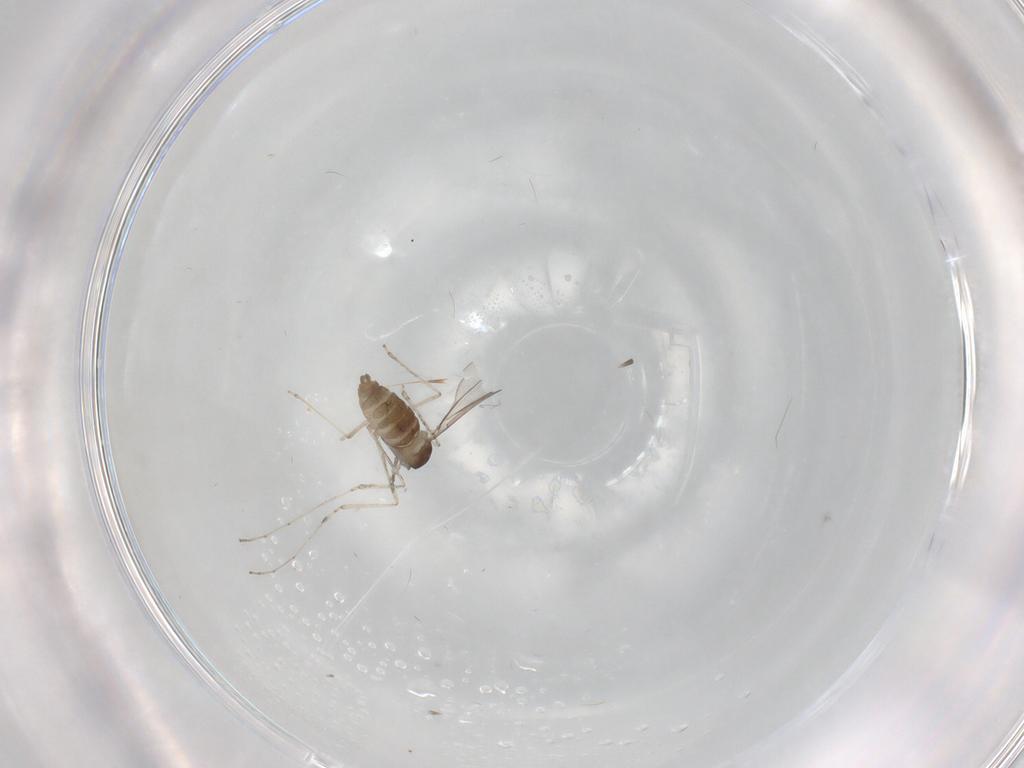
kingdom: Animalia
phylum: Arthropoda
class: Insecta
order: Diptera
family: Cecidomyiidae
